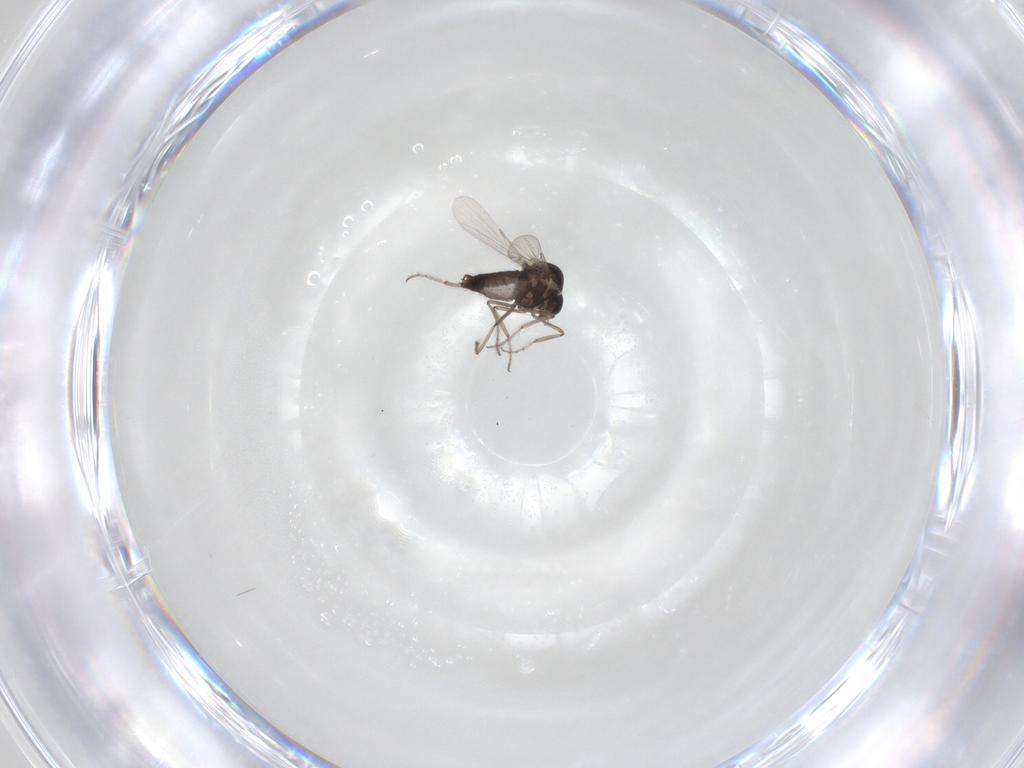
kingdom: Animalia
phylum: Arthropoda
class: Insecta
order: Diptera
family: Ceratopogonidae
